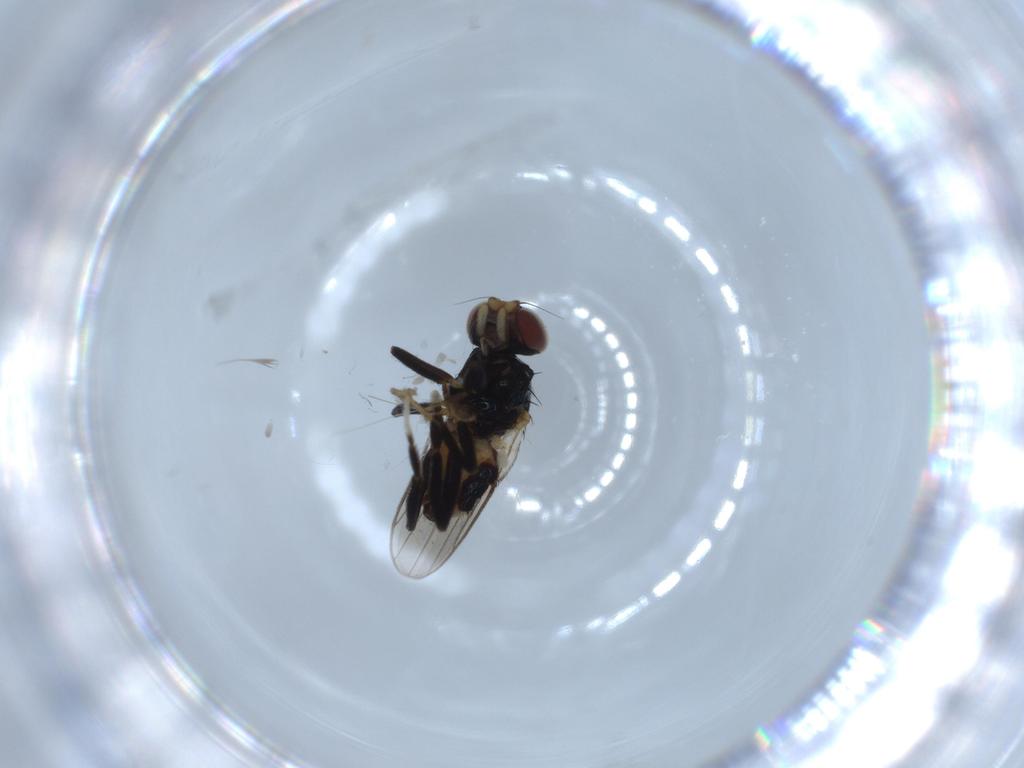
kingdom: Animalia
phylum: Arthropoda
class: Insecta
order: Diptera
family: Chloropidae
